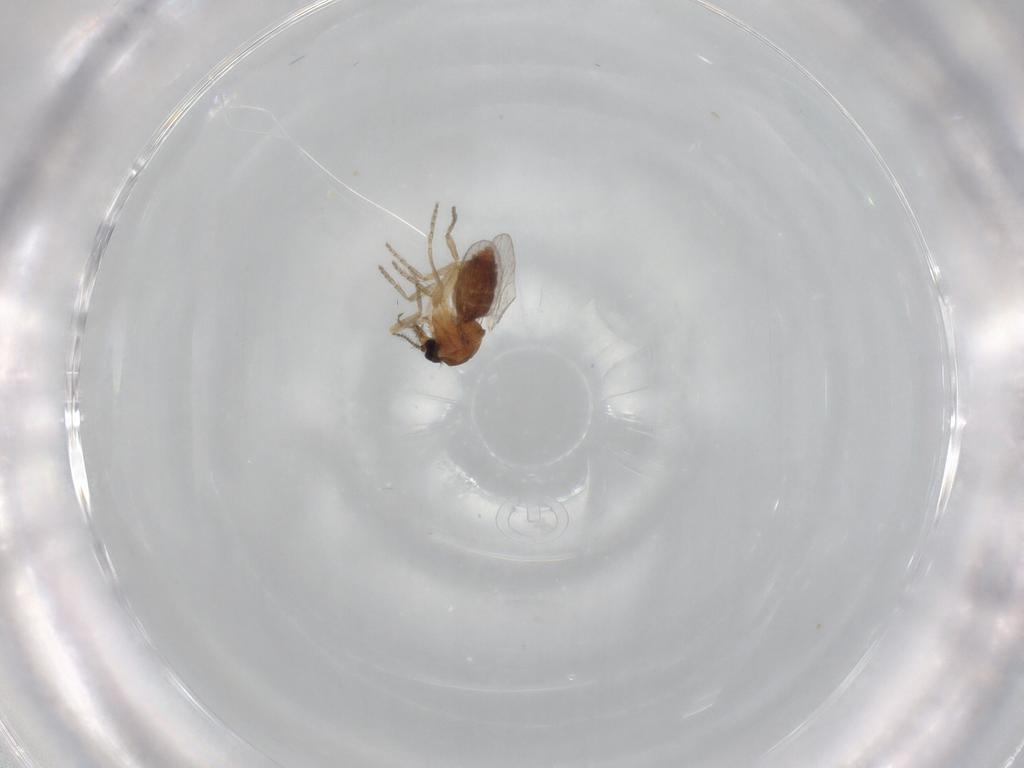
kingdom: Animalia
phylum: Arthropoda
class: Insecta
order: Diptera
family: Ceratopogonidae
